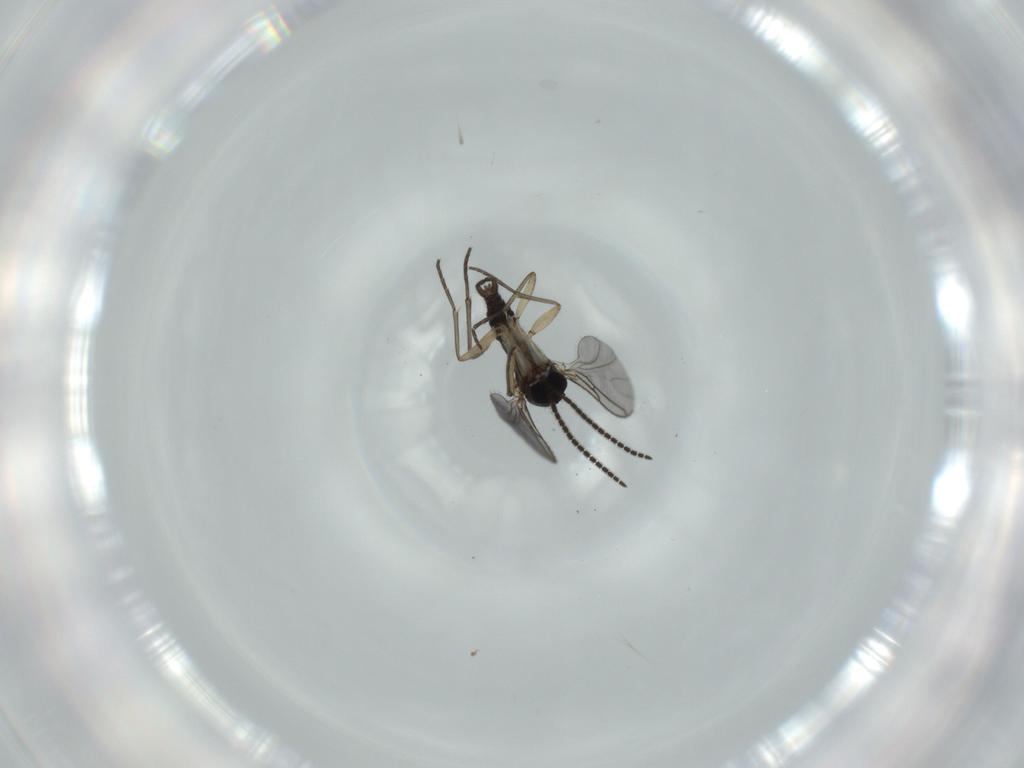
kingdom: Animalia
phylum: Arthropoda
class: Insecta
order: Diptera
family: Sciaridae
